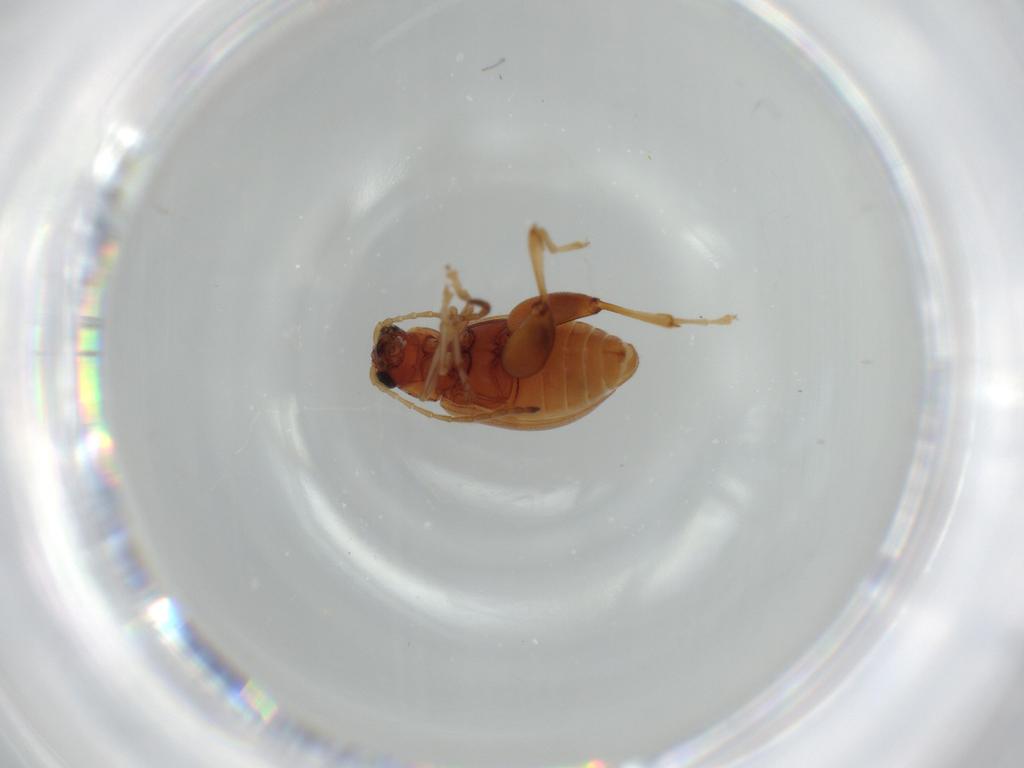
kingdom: Animalia
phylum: Arthropoda
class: Insecta
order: Coleoptera
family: Chrysomelidae
